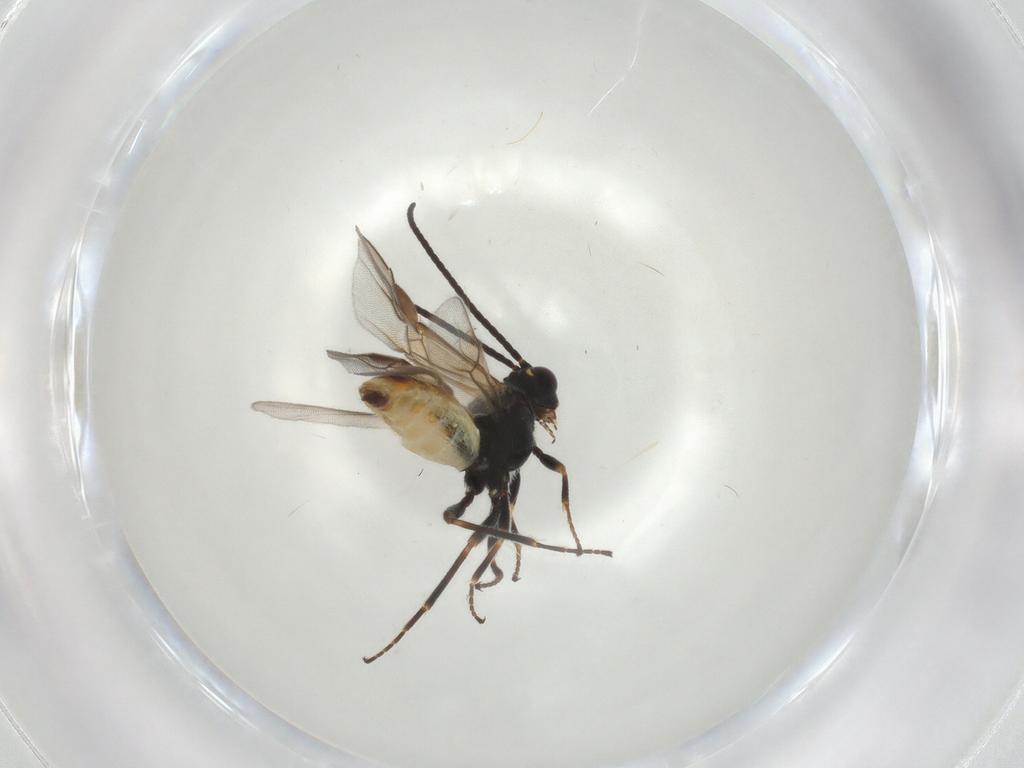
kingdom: Animalia
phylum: Arthropoda
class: Insecta
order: Hymenoptera
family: Braconidae
